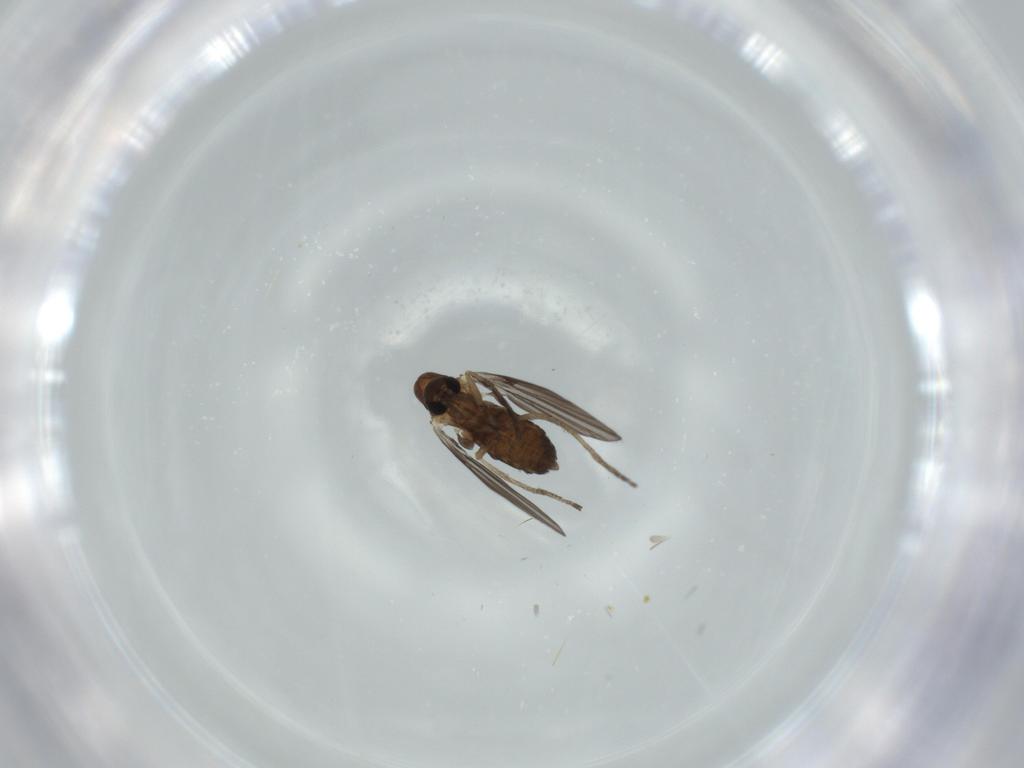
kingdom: Animalia
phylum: Arthropoda
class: Insecta
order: Diptera
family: Psychodidae
